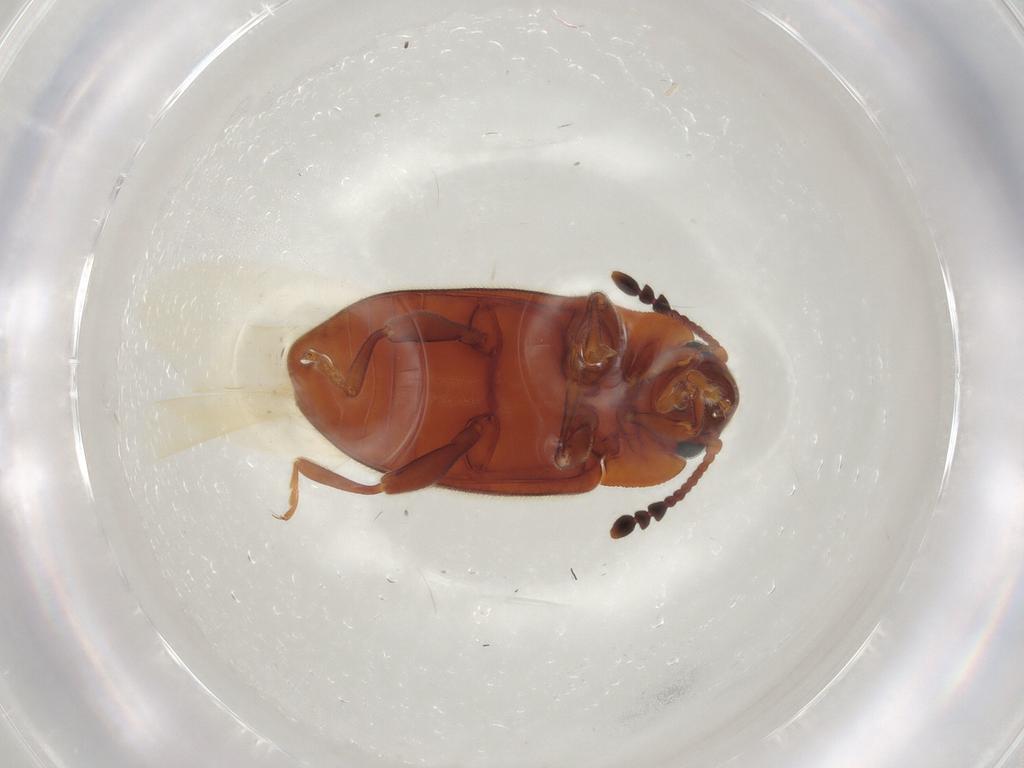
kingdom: Animalia
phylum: Arthropoda
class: Insecta
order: Coleoptera
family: Endomychidae
